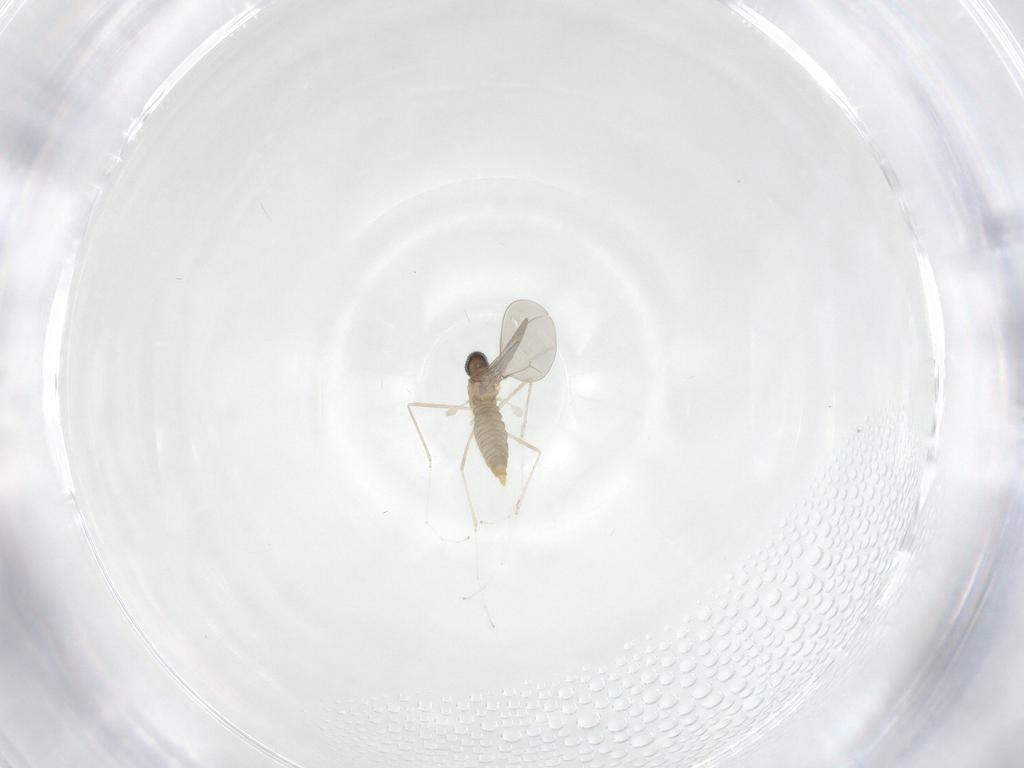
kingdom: Animalia
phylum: Arthropoda
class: Insecta
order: Diptera
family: Cecidomyiidae
